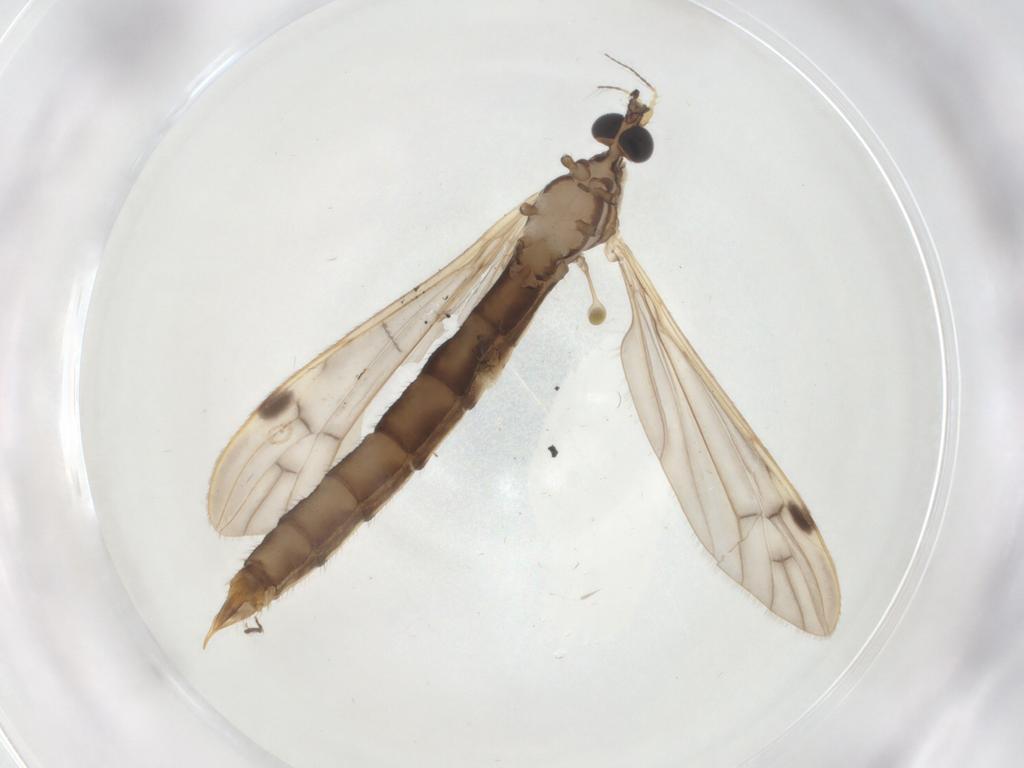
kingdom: Animalia
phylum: Arthropoda
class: Insecta
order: Diptera
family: Limoniidae
